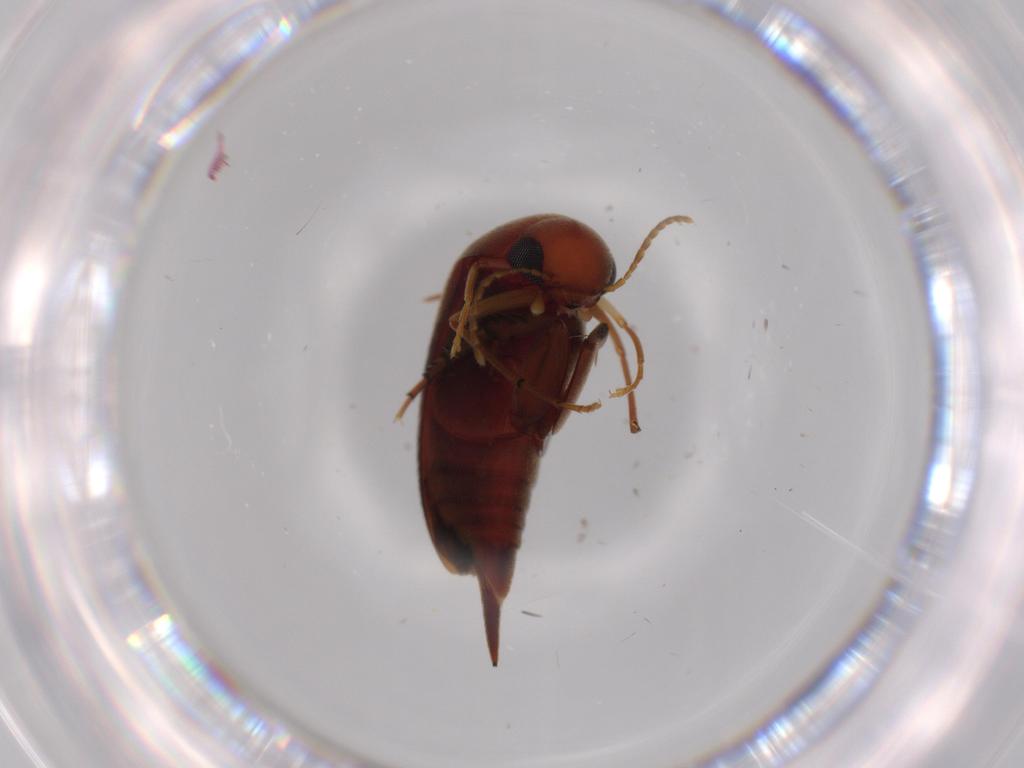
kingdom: Animalia
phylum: Arthropoda
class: Insecta
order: Coleoptera
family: Mordellidae
